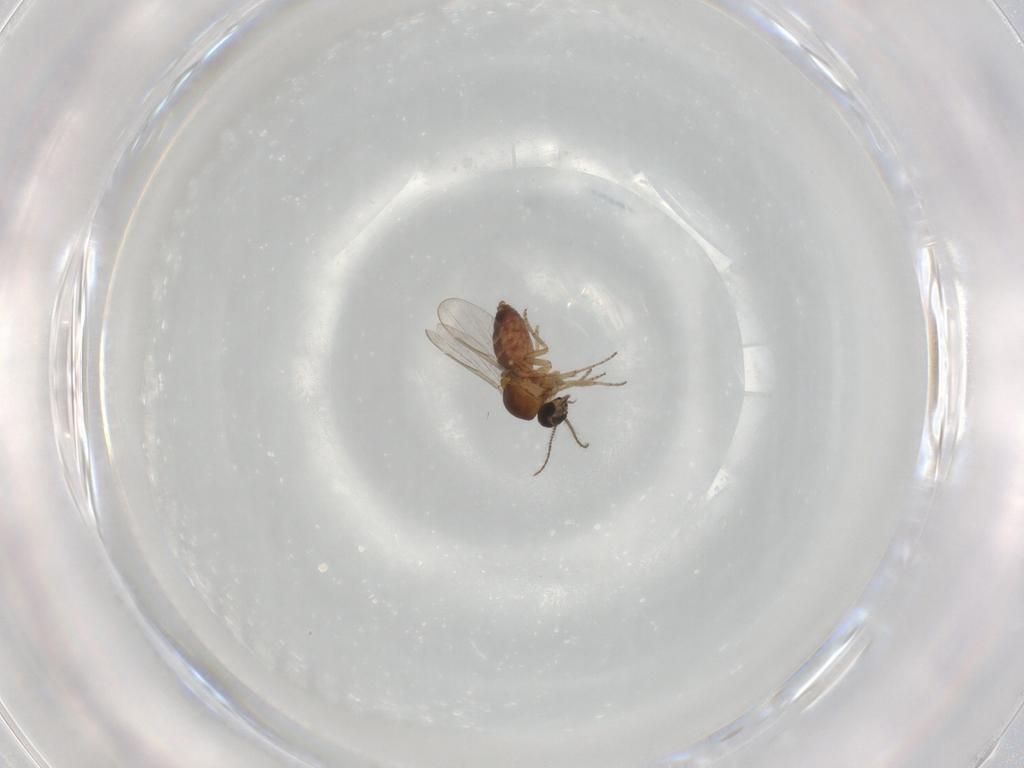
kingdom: Animalia
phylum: Arthropoda
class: Insecta
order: Diptera
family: Ceratopogonidae
